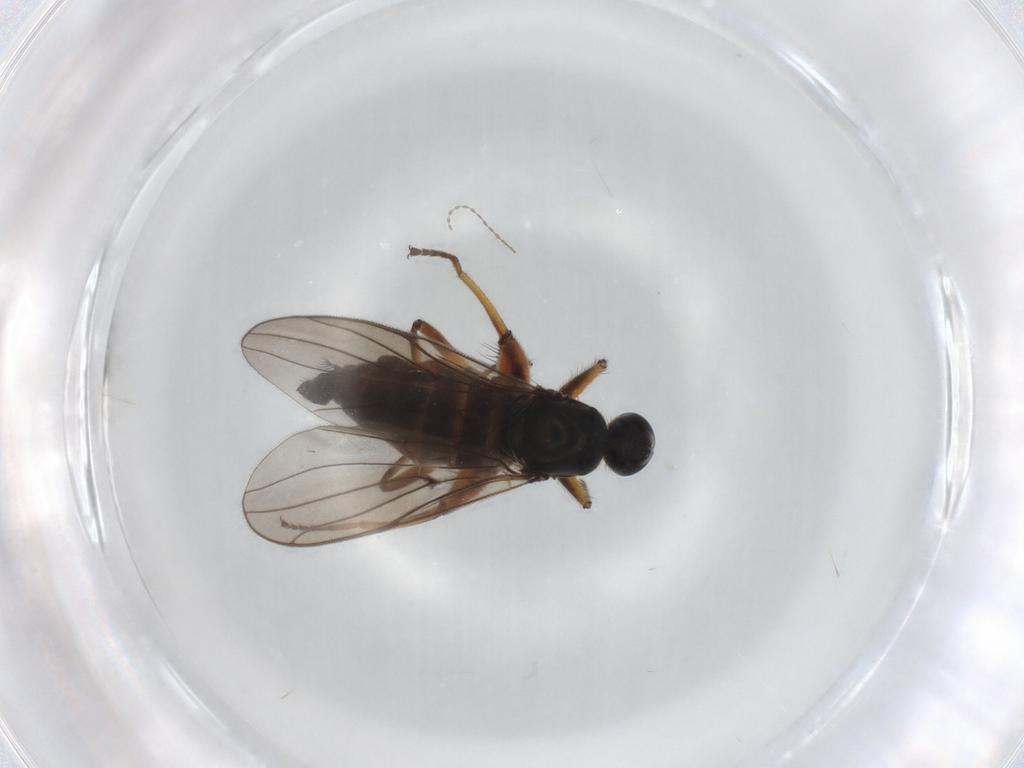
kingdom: Animalia
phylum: Arthropoda
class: Insecta
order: Diptera
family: Hybotidae
